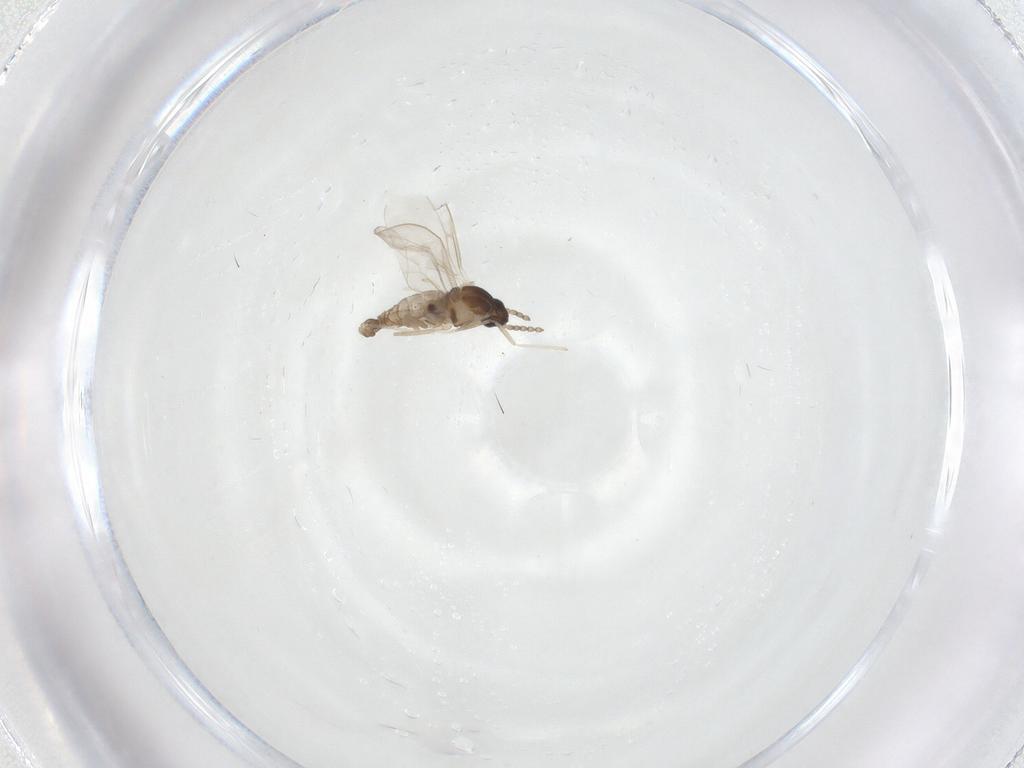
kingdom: Animalia
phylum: Arthropoda
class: Insecta
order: Diptera
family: Cecidomyiidae
